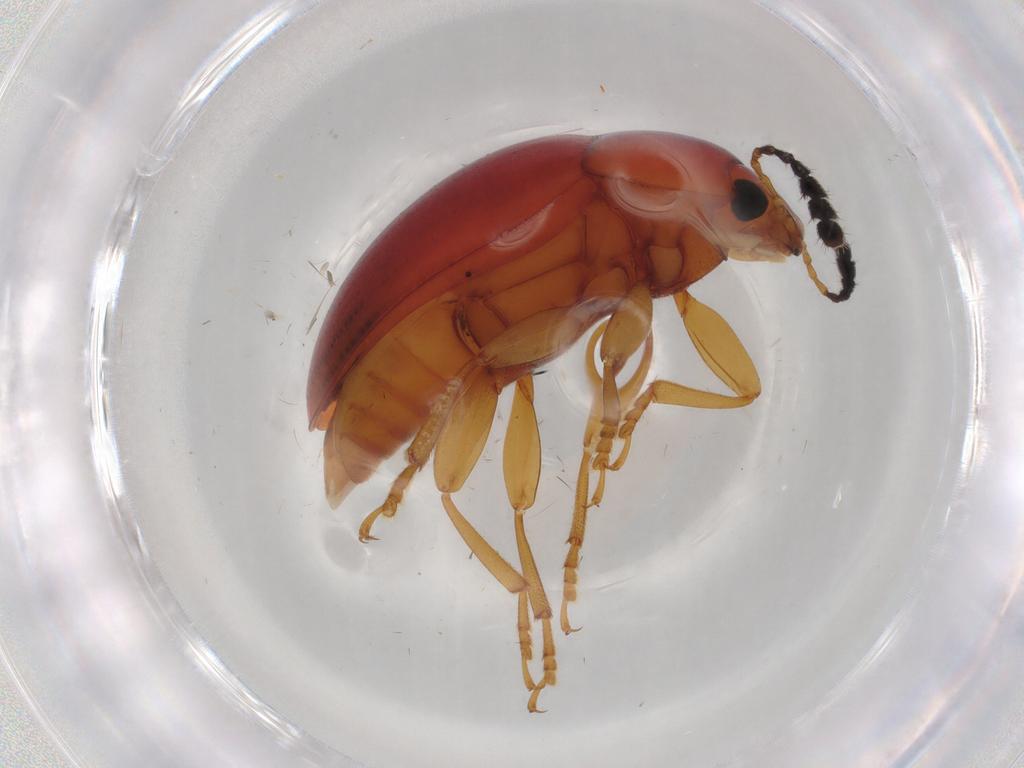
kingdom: Animalia
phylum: Arthropoda
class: Insecta
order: Coleoptera
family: Erotylidae
